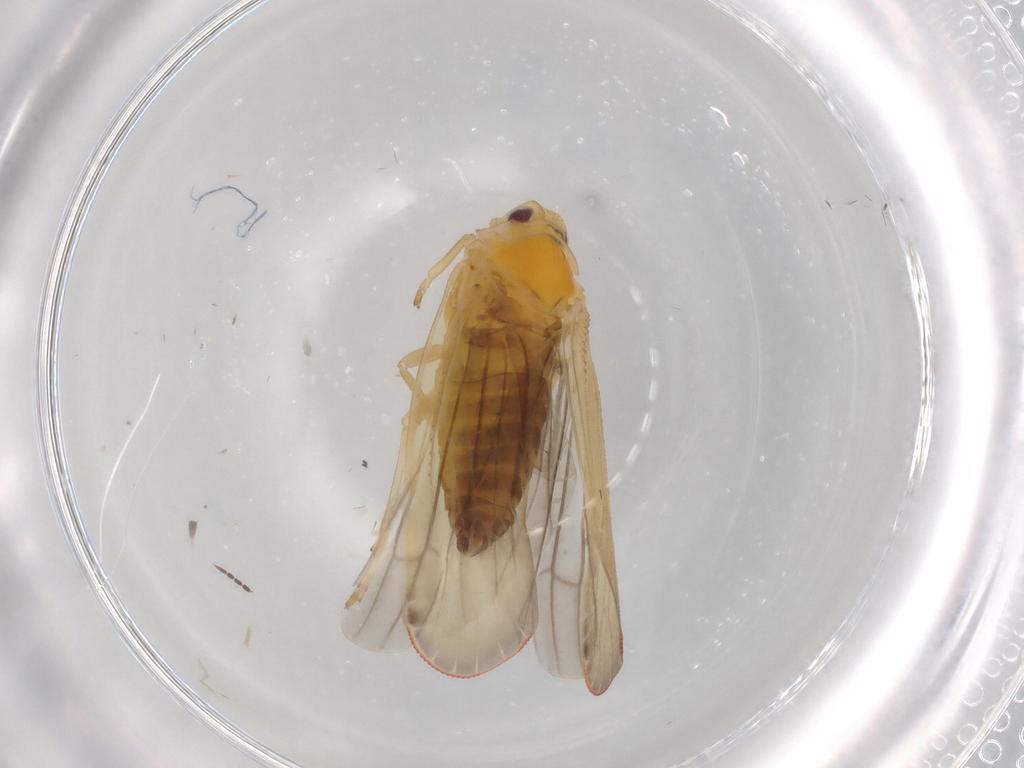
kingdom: Animalia
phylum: Arthropoda
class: Insecta
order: Hemiptera
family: Derbidae
